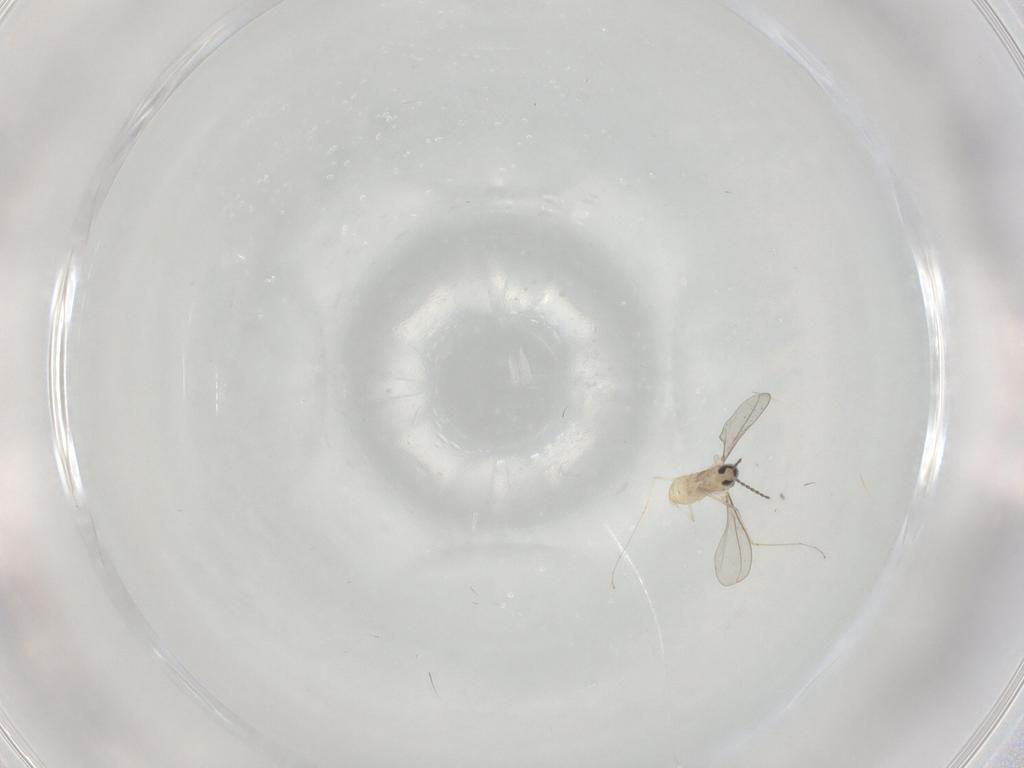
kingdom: Animalia
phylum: Arthropoda
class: Insecta
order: Diptera
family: Cecidomyiidae
